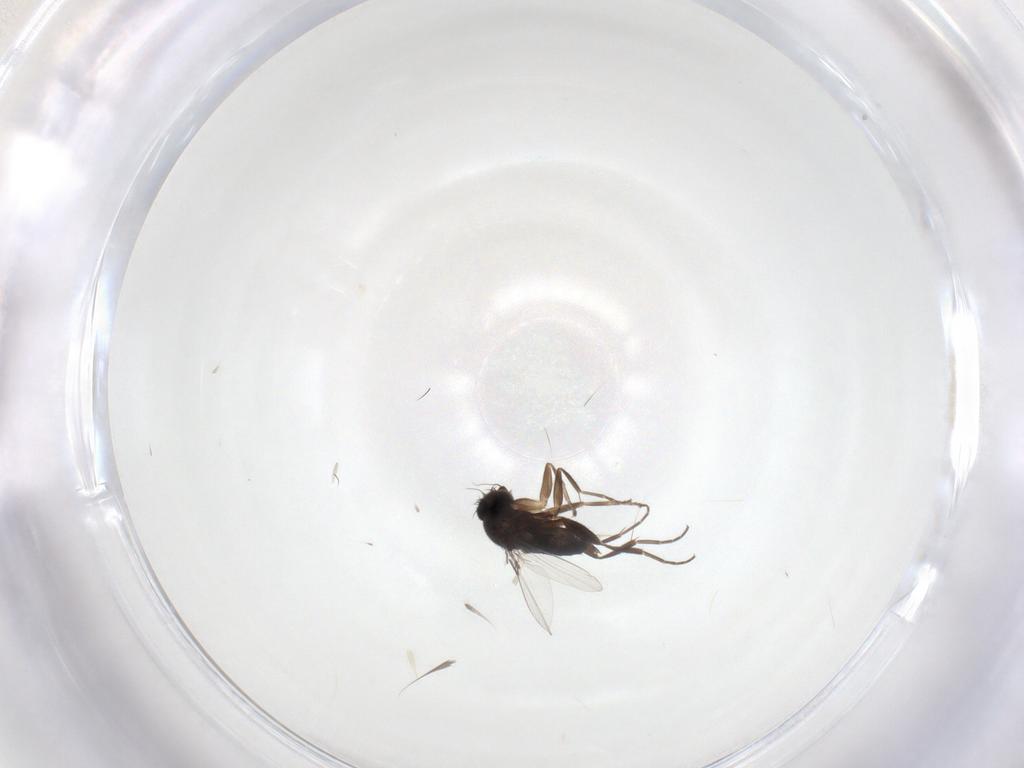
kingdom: Animalia
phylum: Arthropoda
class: Insecta
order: Diptera
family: Phoridae
